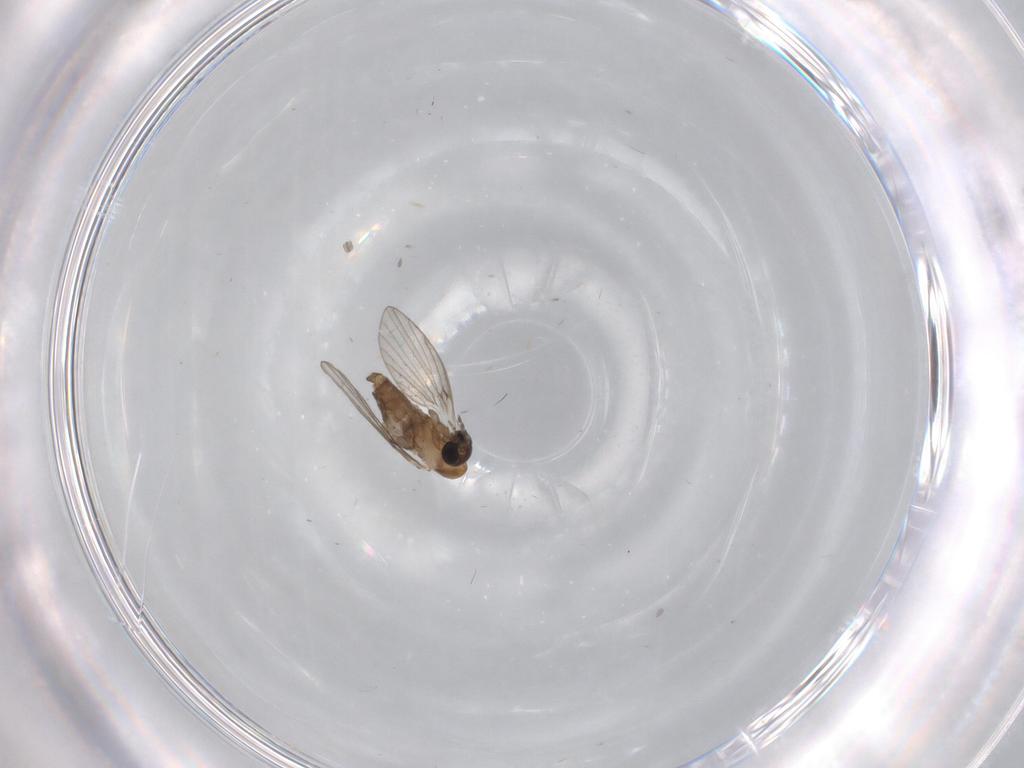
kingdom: Animalia
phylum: Arthropoda
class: Insecta
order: Diptera
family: Psychodidae
